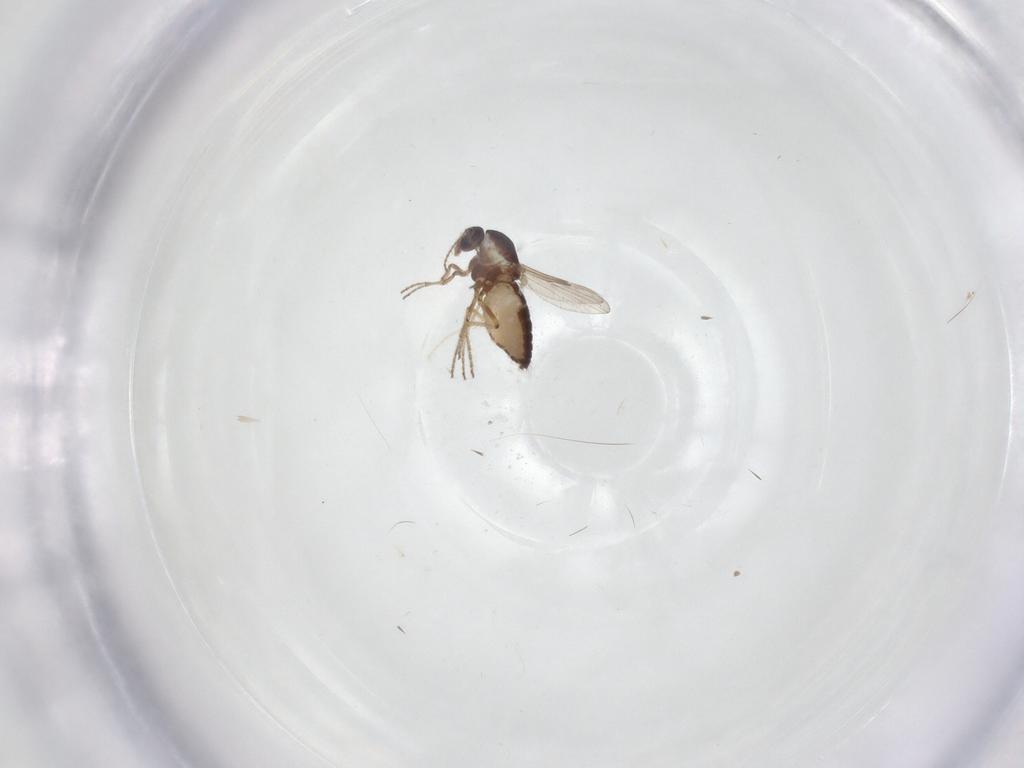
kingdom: Animalia
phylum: Arthropoda
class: Insecta
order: Diptera
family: Ceratopogonidae
